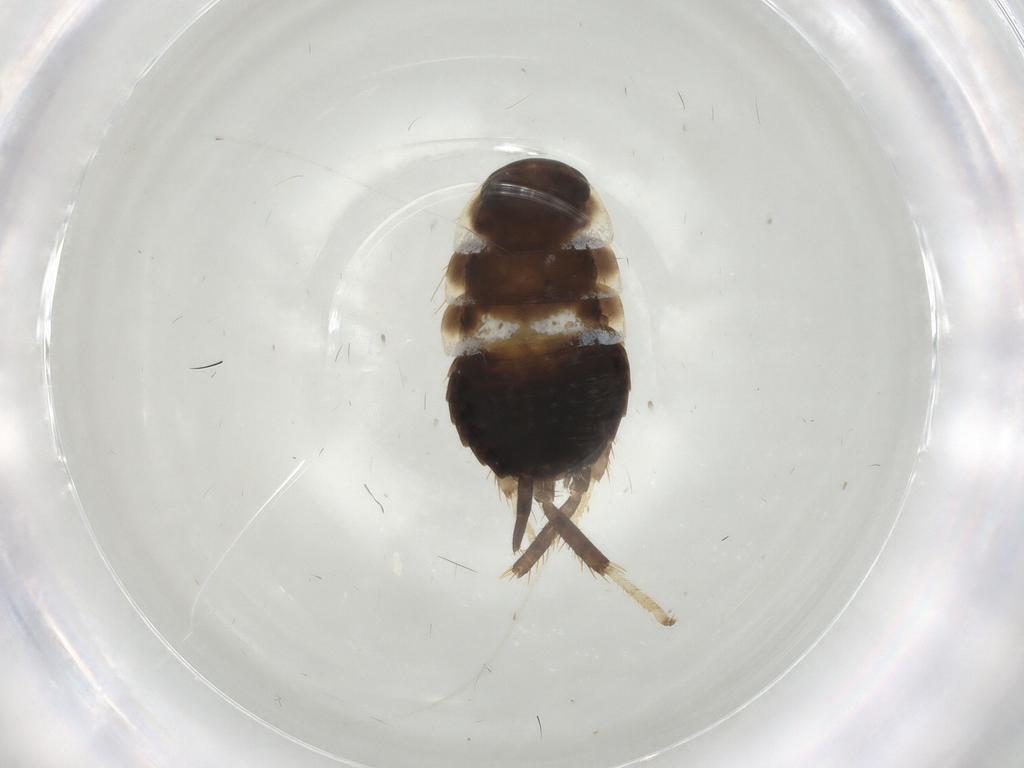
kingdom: Animalia
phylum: Arthropoda
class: Insecta
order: Blattodea
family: Blaberidae
